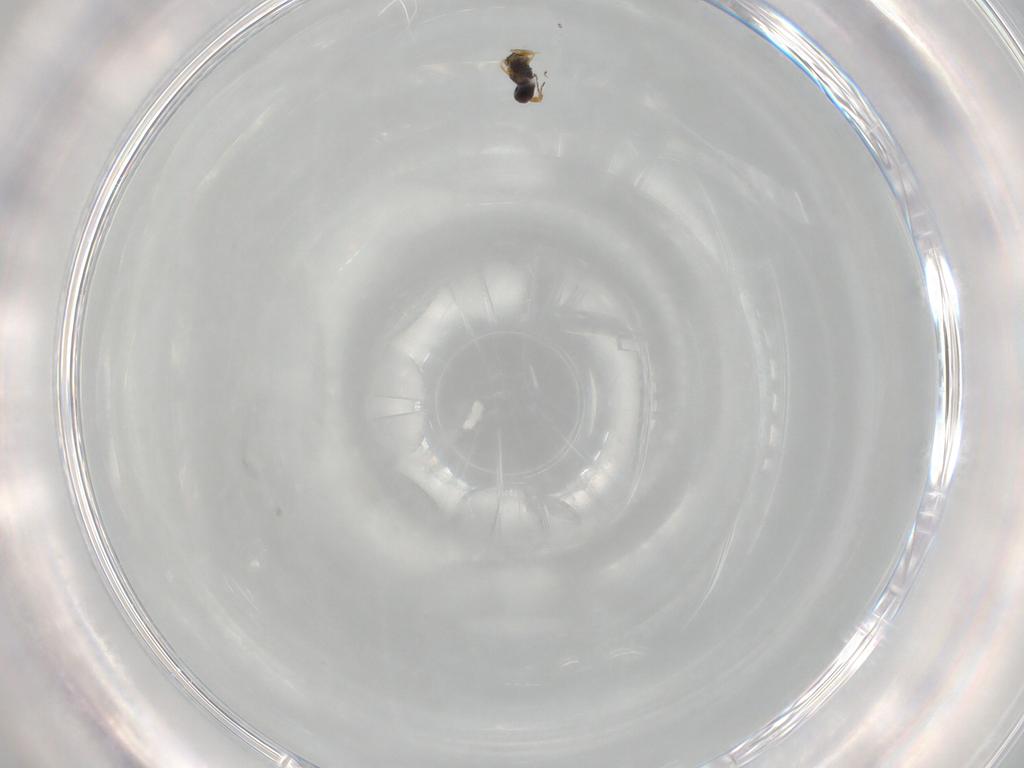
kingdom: Animalia
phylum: Arthropoda
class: Insecta
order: Hymenoptera
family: Mymaridae
